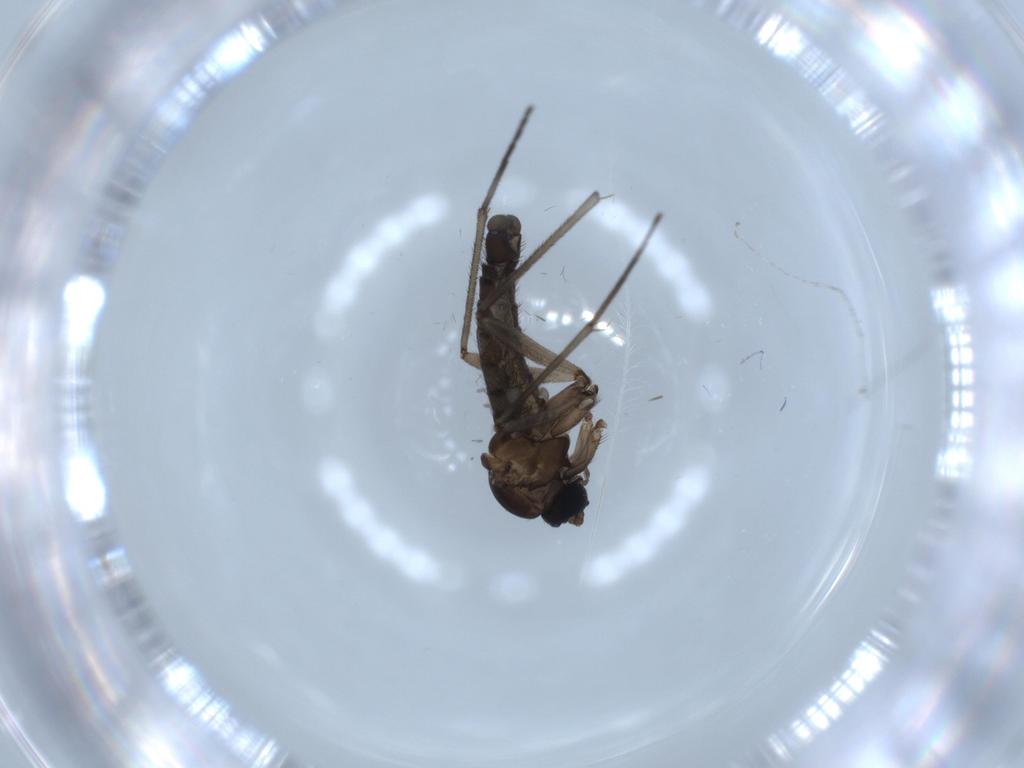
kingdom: Animalia
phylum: Arthropoda
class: Insecta
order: Diptera
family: Sciaridae
